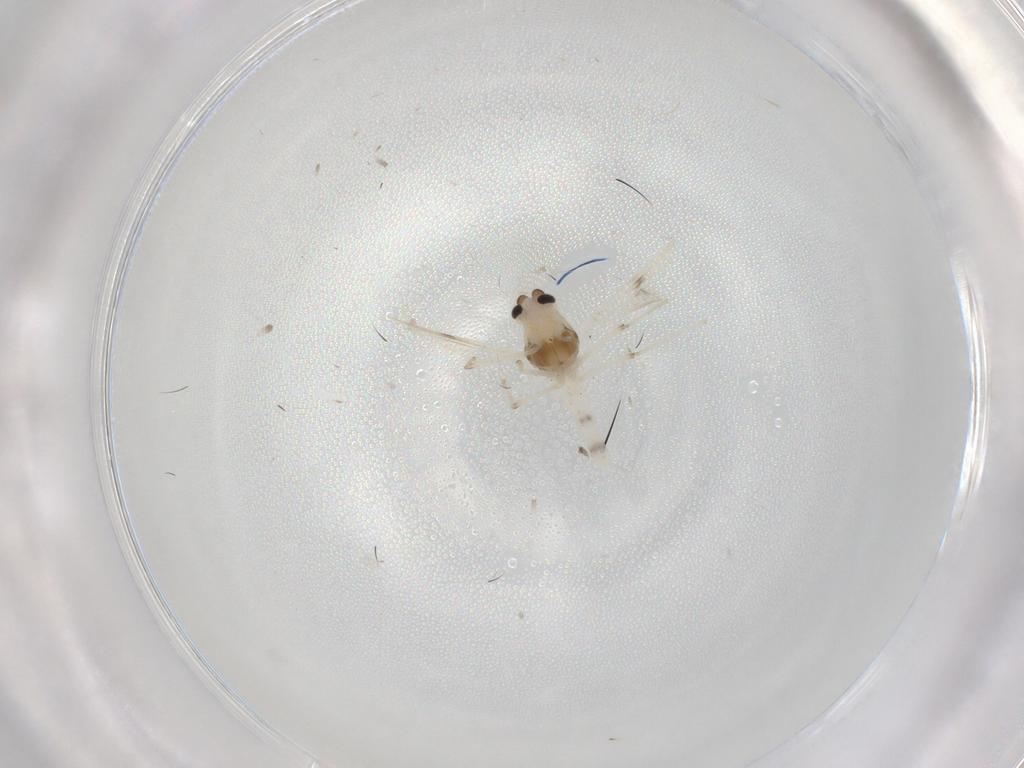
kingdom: Animalia
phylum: Arthropoda
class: Insecta
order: Diptera
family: Chironomidae
